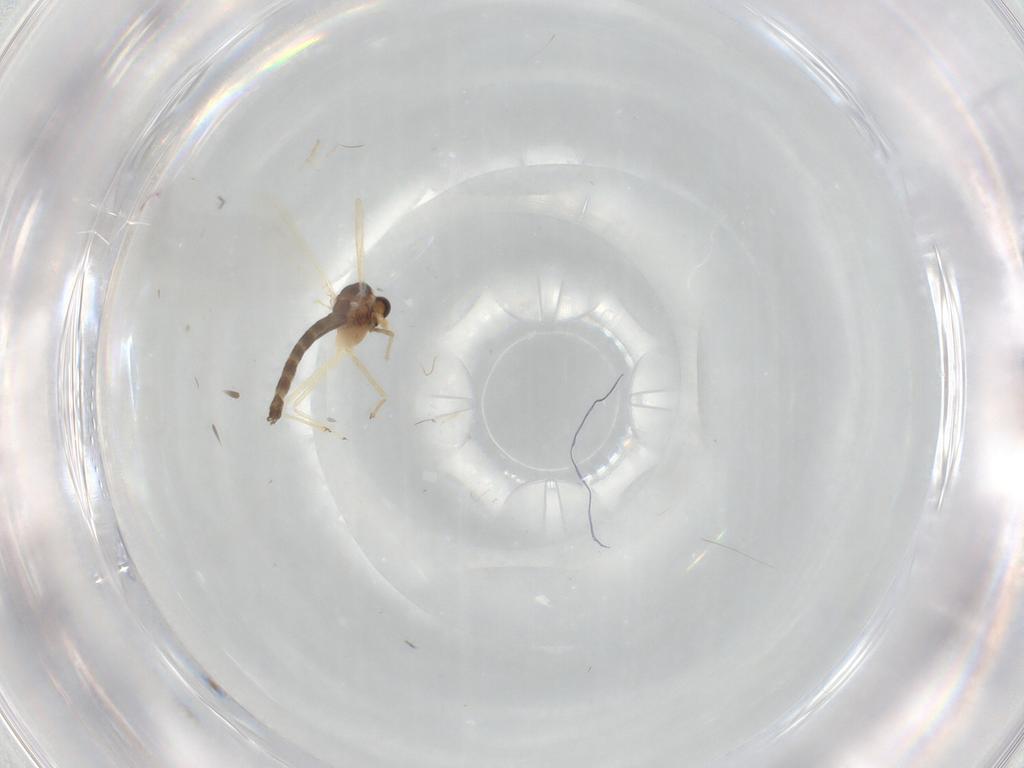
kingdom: Animalia
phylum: Arthropoda
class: Insecta
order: Diptera
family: Chironomidae
